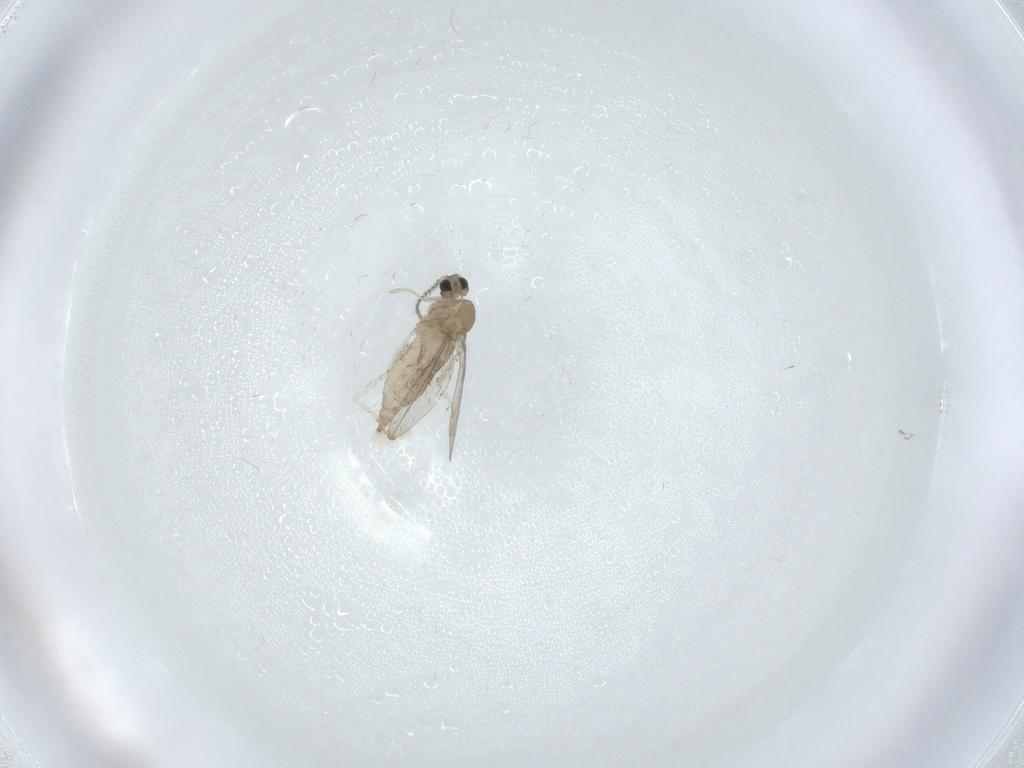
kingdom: Animalia
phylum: Arthropoda
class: Insecta
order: Diptera
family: Cecidomyiidae
